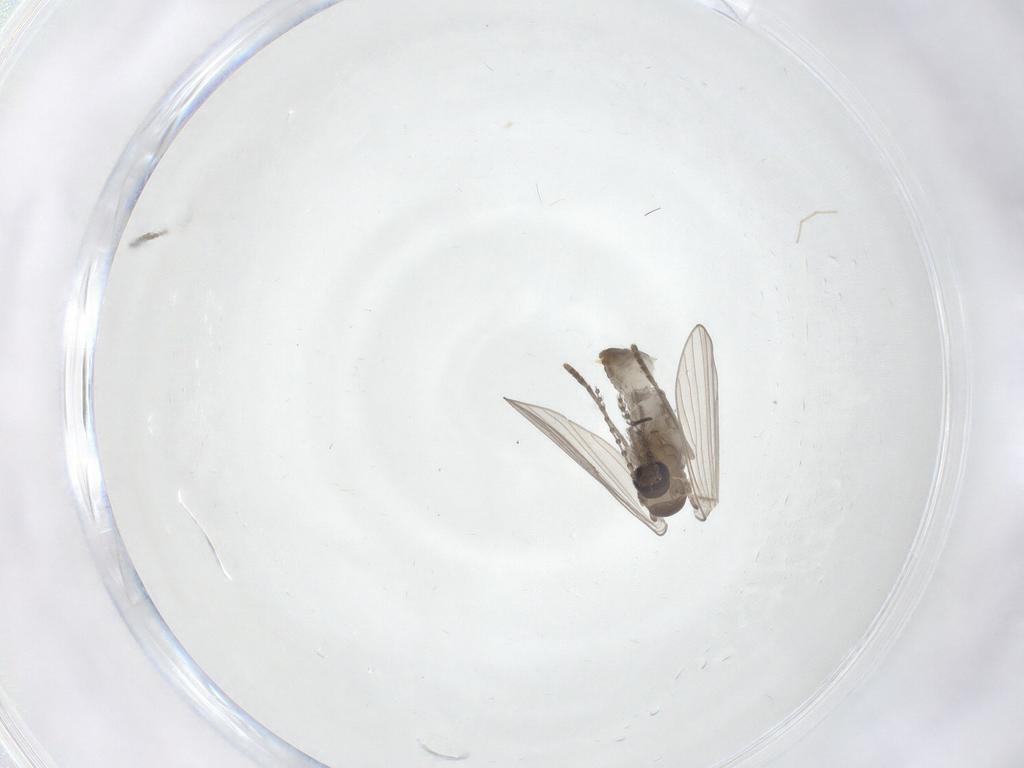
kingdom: Animalia
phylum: Arthropoda
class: Insecta
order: Diptera
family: Psychodidae
